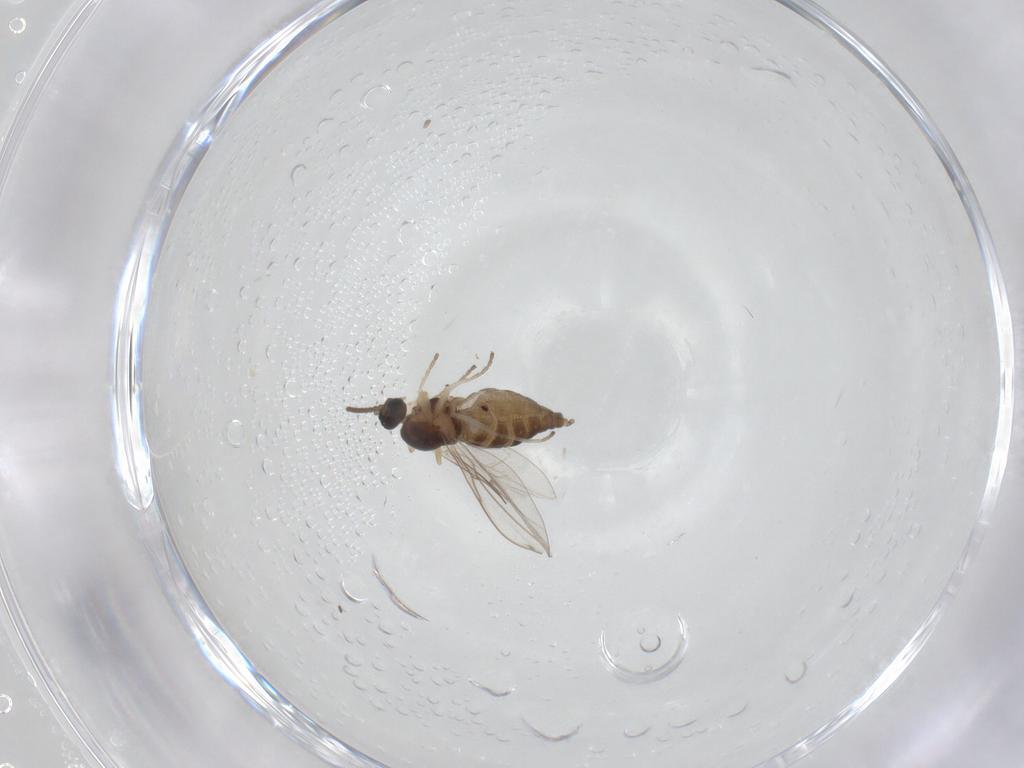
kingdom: Animalia
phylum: Arthropoda
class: Insecta
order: Diptera
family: Cecidomyiidae
